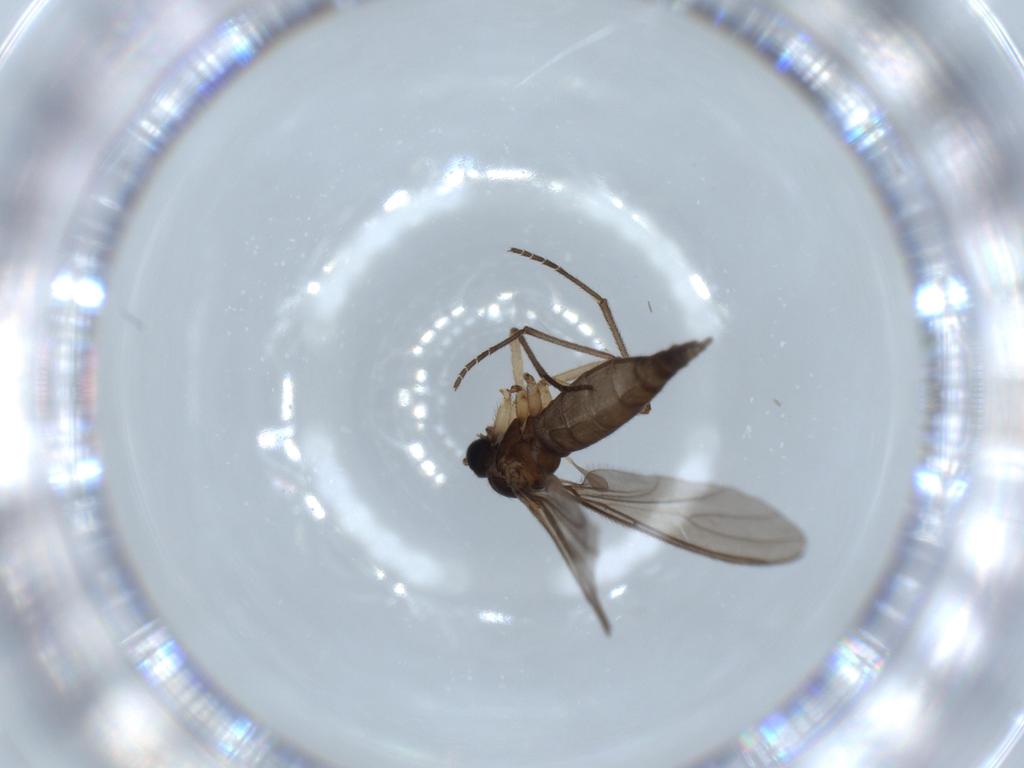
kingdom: Animalia
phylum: Arthropoda
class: Insecta
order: Diptera
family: Sciaridae
